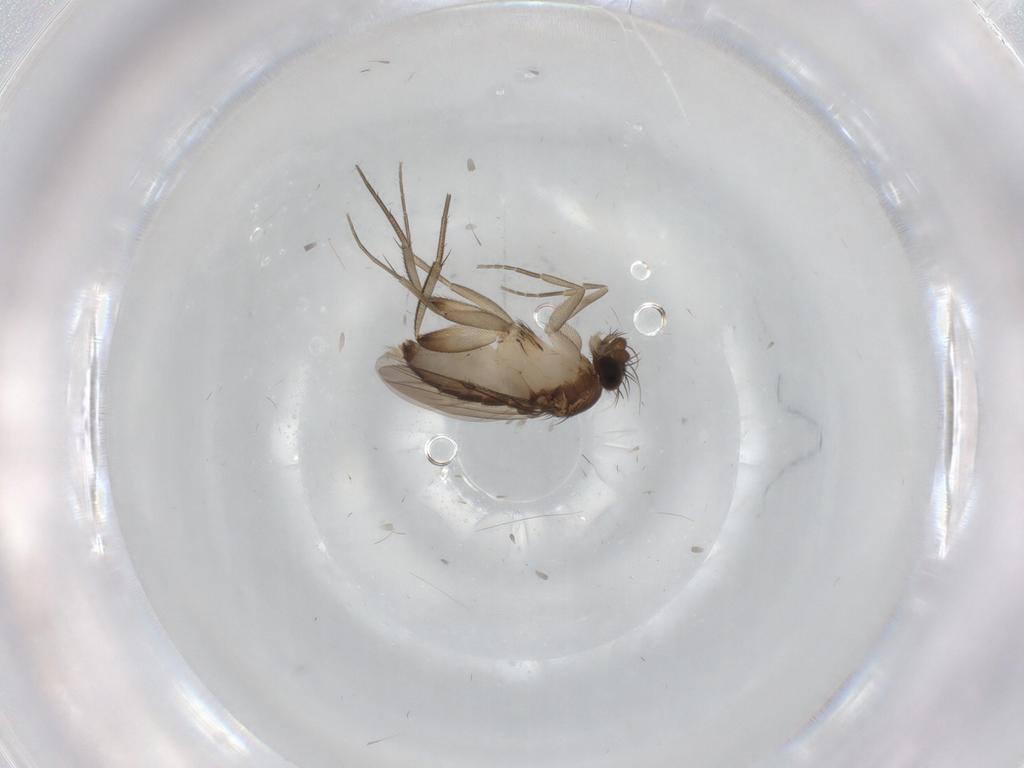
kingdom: Animalia
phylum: Arthropoda
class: Insecta
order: Diptera
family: Phoridae
